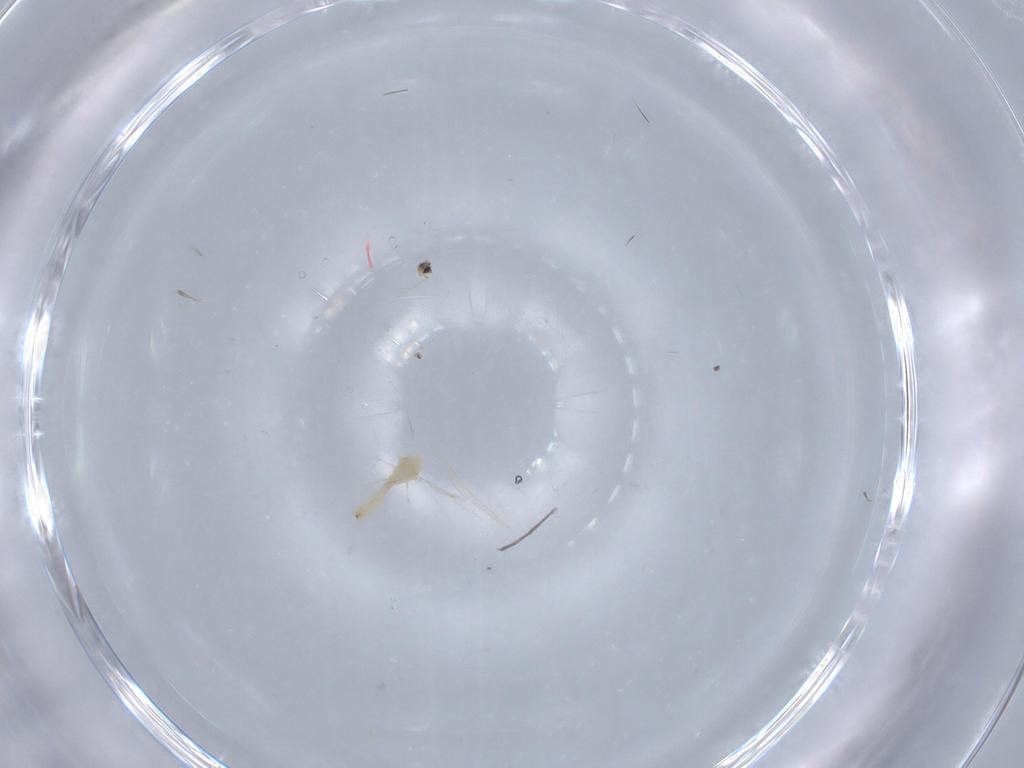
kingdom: Animalia
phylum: Arthropoda
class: Insecta
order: Diptera
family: Cecidomyiidae
